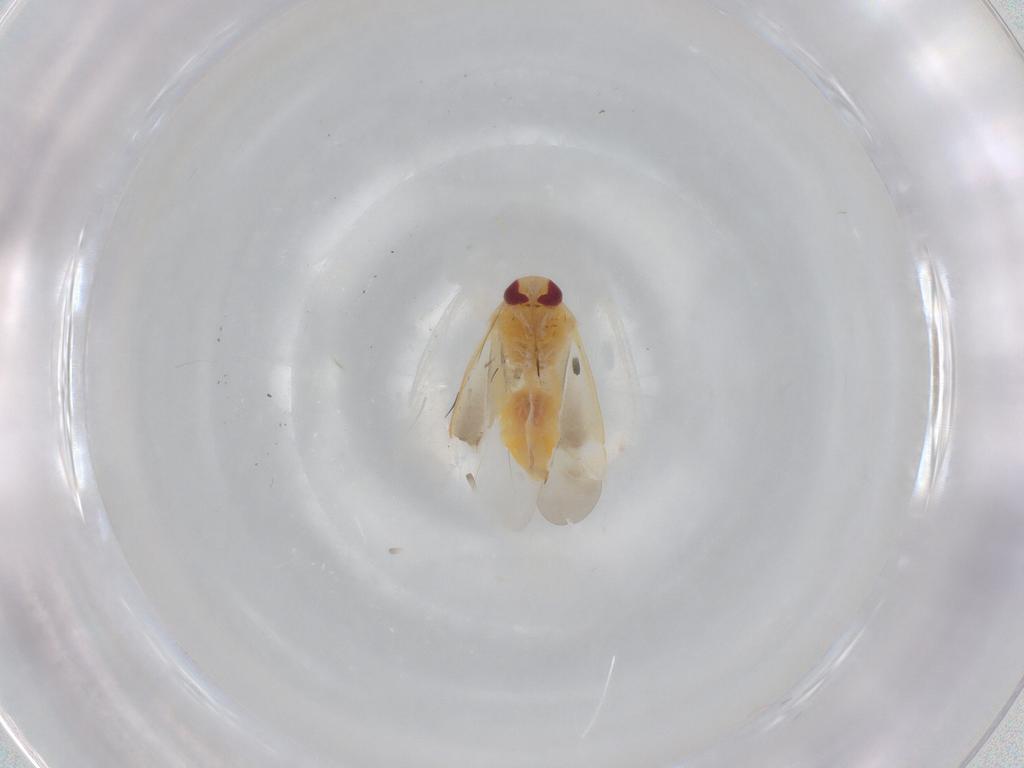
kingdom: Animalia
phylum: Arthropoda
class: Insecta
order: Hemiptera
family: Miridae
